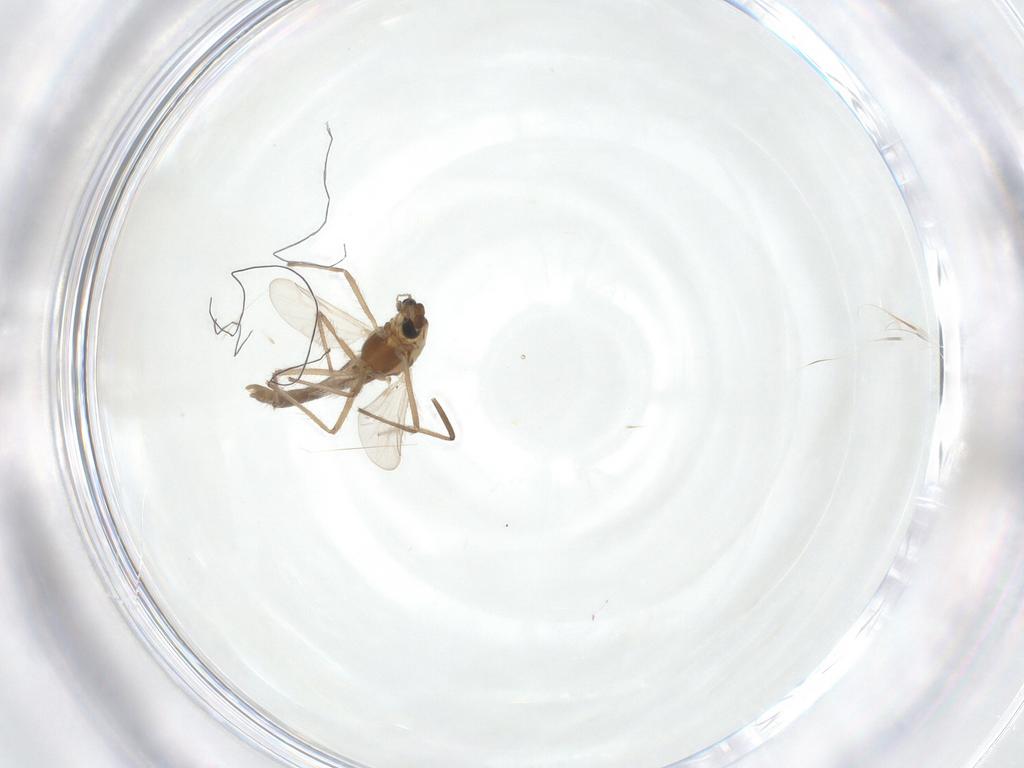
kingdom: Animalia
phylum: Arthropoda
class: Insecta
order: Diptera
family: Chironomidae
